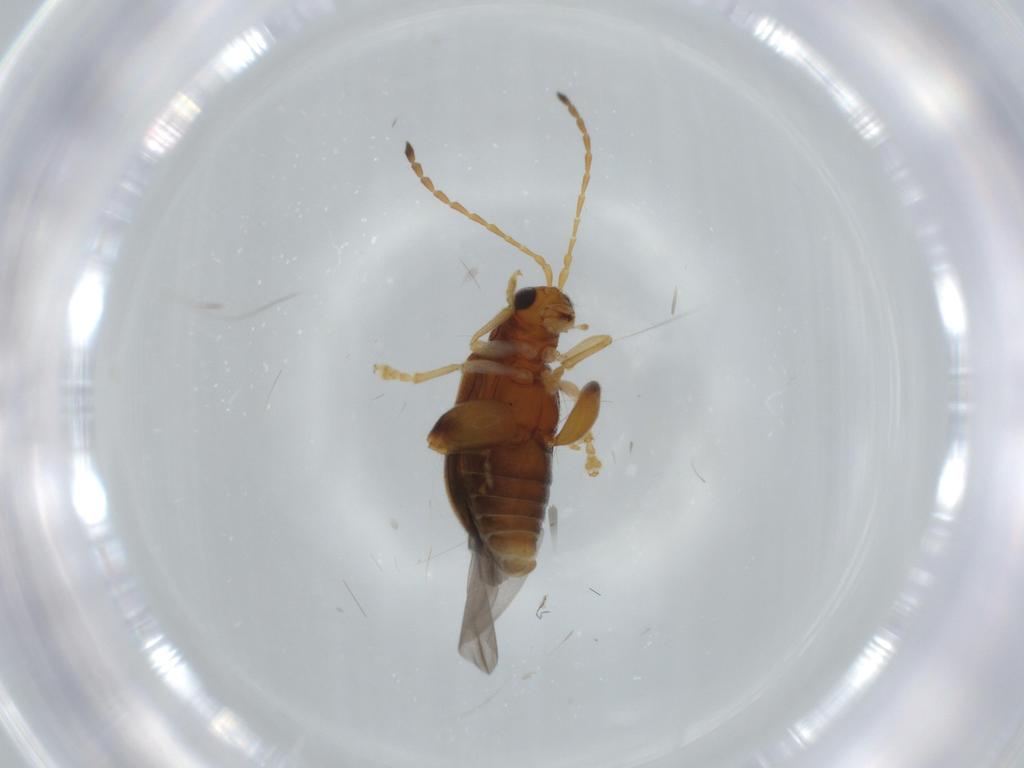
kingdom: Animalia
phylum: Arthropoda
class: Insecta
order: Coleoptera
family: Chrysomelidae
